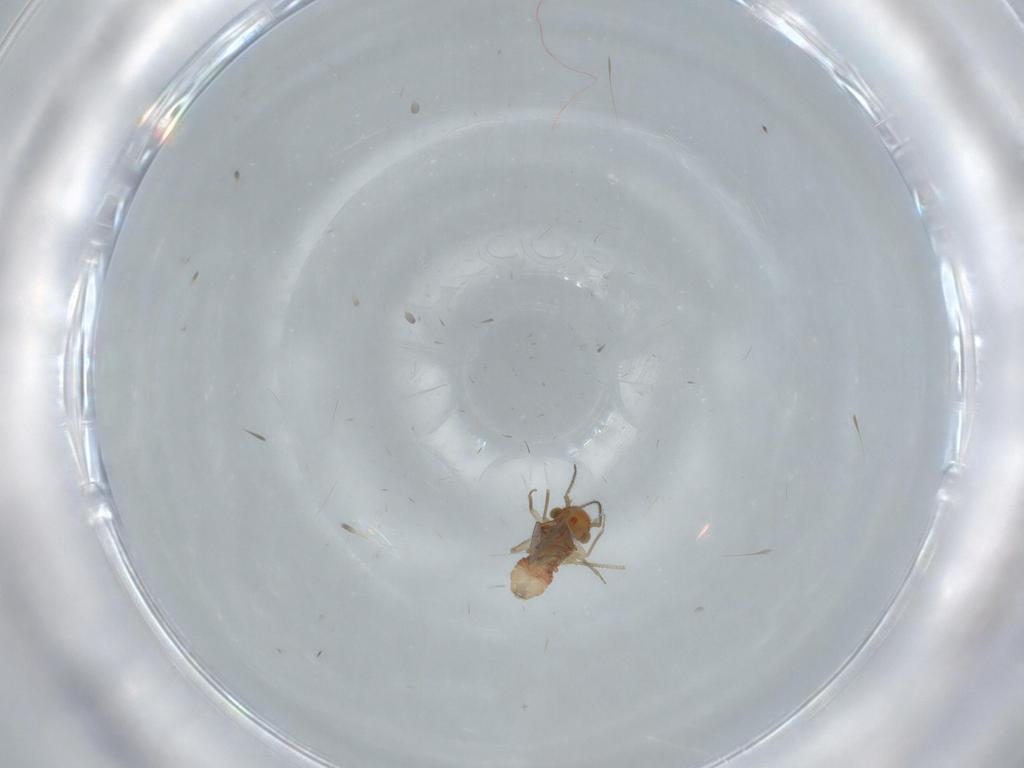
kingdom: Animalia
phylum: Arthropoda
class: Insecta
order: Psocodea
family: Ectopsocidae
